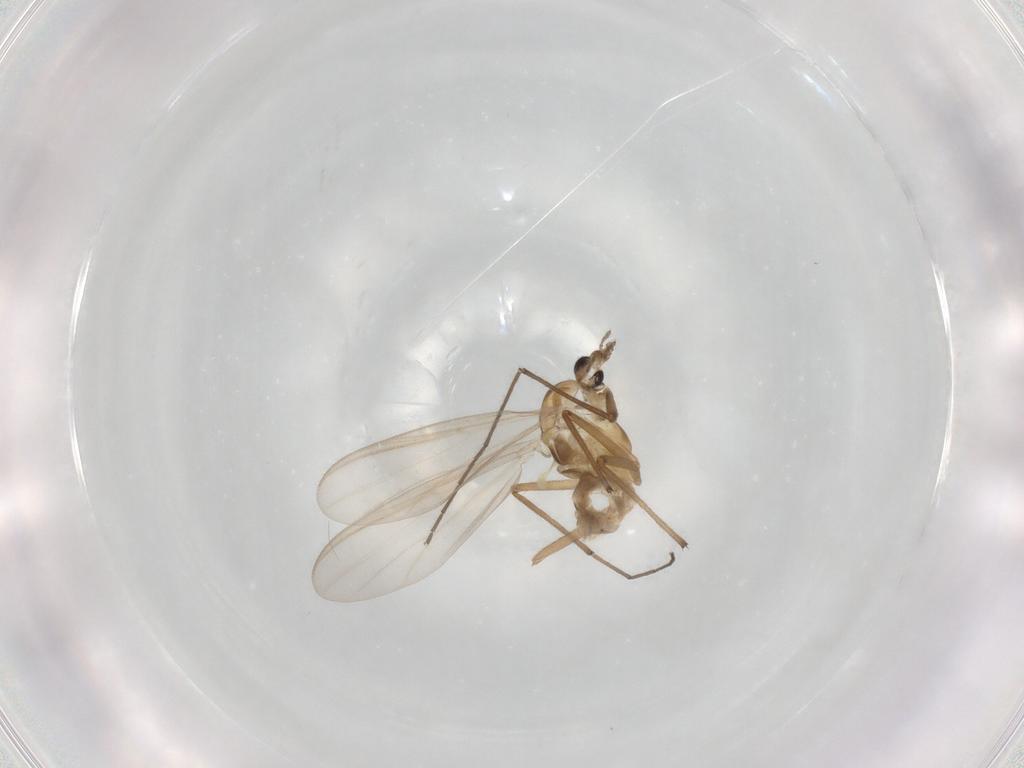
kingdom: Animalia
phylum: Arthropoda
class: Insecta
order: Diptera
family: Chironomidae
